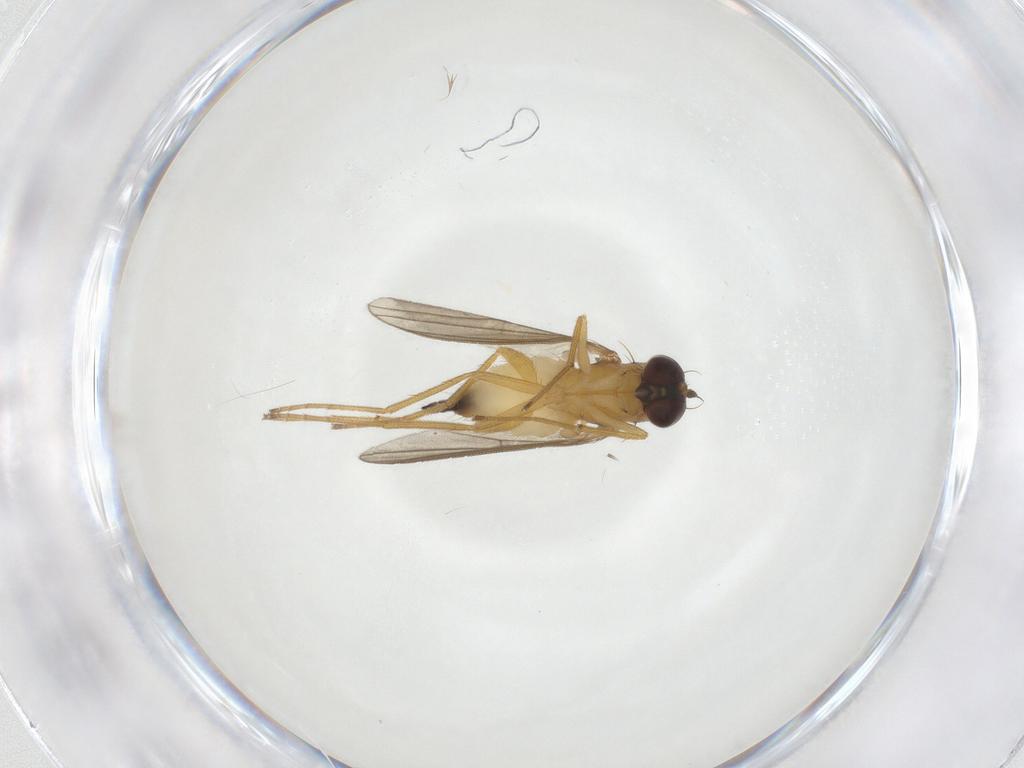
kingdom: Animalia
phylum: Arthropoda
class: Insecta
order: Diptera
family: Dolichopodidae
